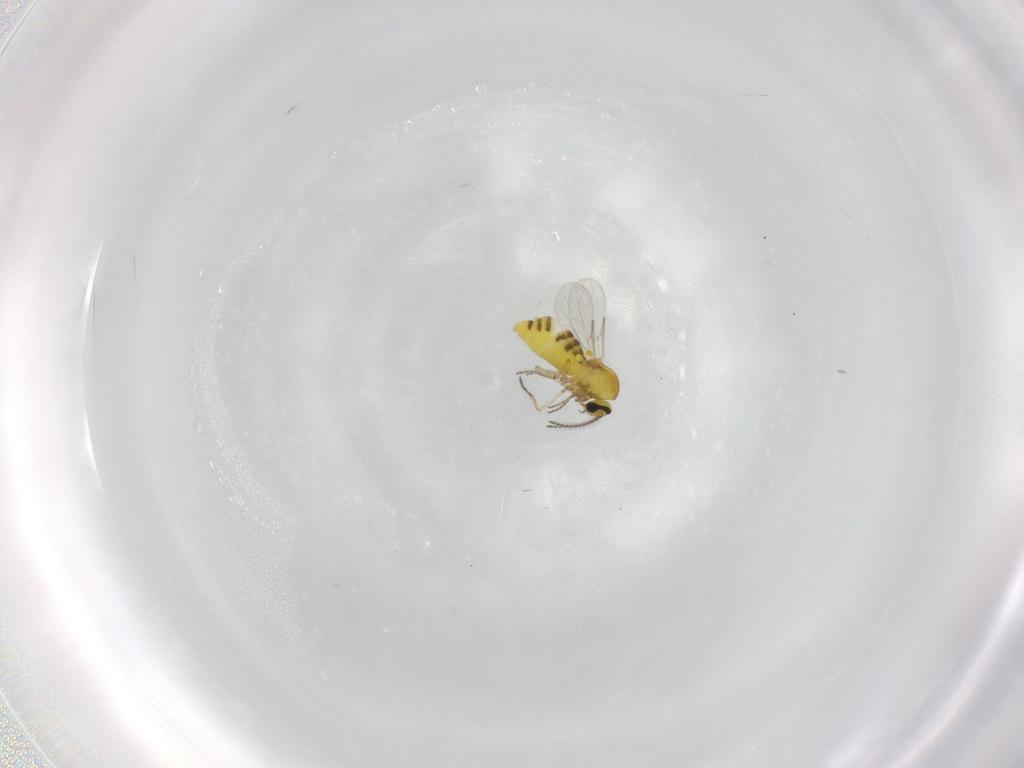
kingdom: Animalia
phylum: Arthropoda
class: Insecta
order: Diptera
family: Ceratopogonidae
